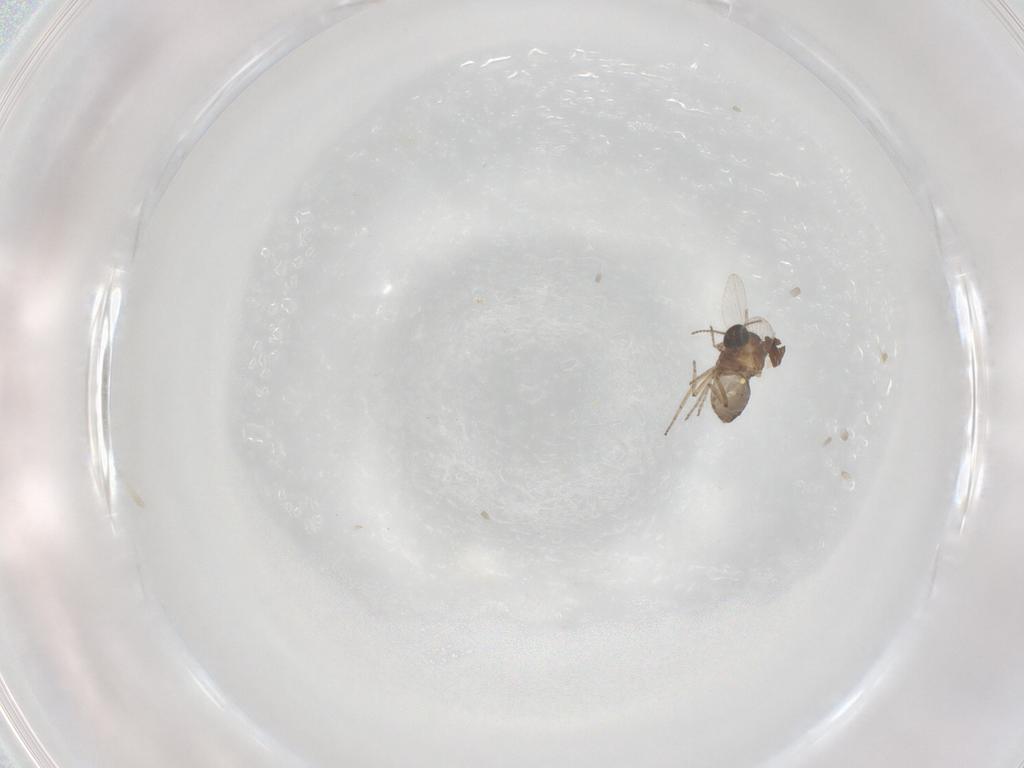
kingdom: Animalia
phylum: Arthropoda
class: Insecta
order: Diptera
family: Ceratopogonidae
